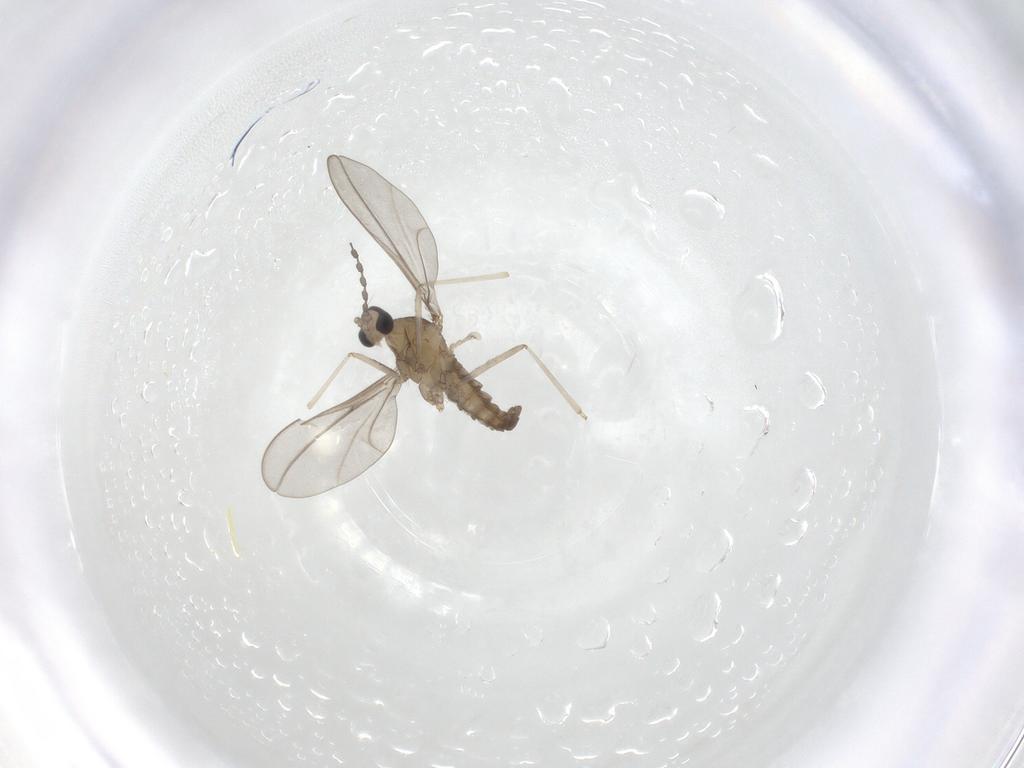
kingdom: Animalia
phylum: Arthropoda
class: Insecta
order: Diptera
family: Cecidomyiidae
